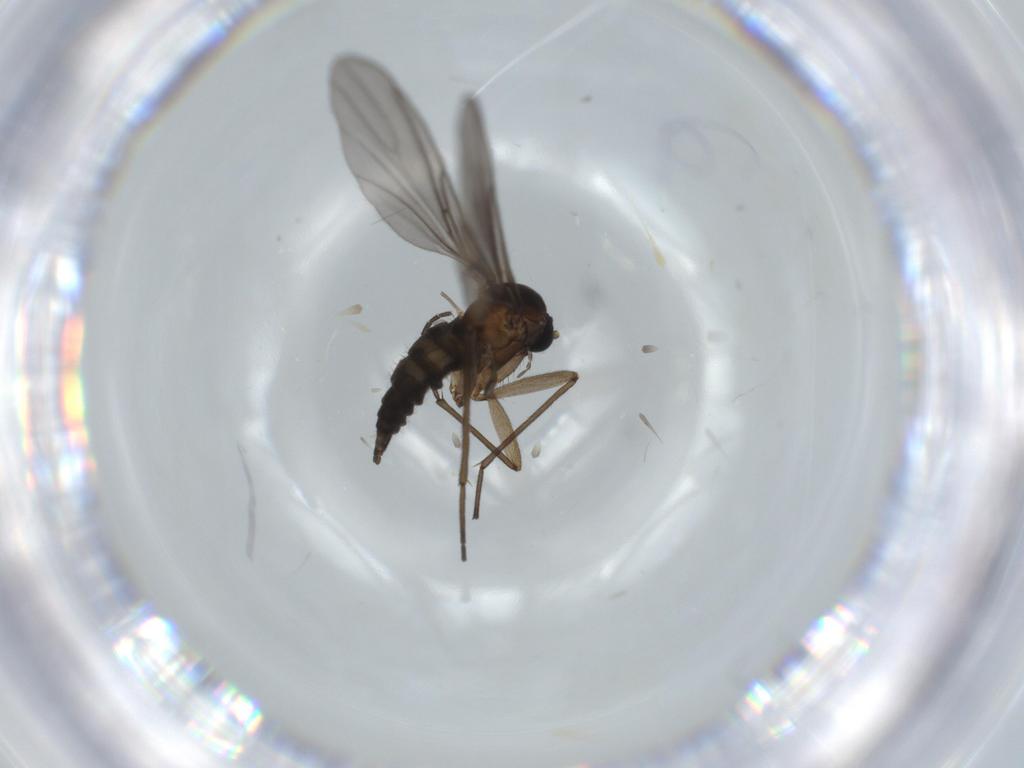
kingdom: Animalia
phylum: Arthropoda
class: Insecta
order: Diptera
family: Sciaridae
